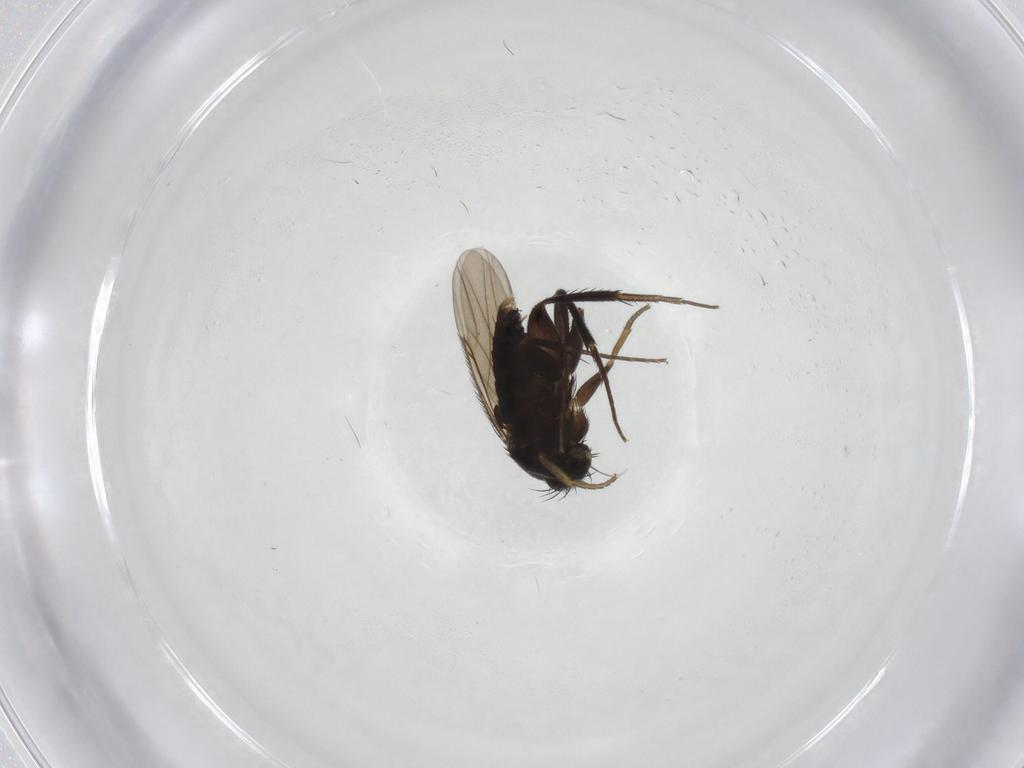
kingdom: Animalia
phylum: Arthropoda
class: Insecta
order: Diptera
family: Phoridae
